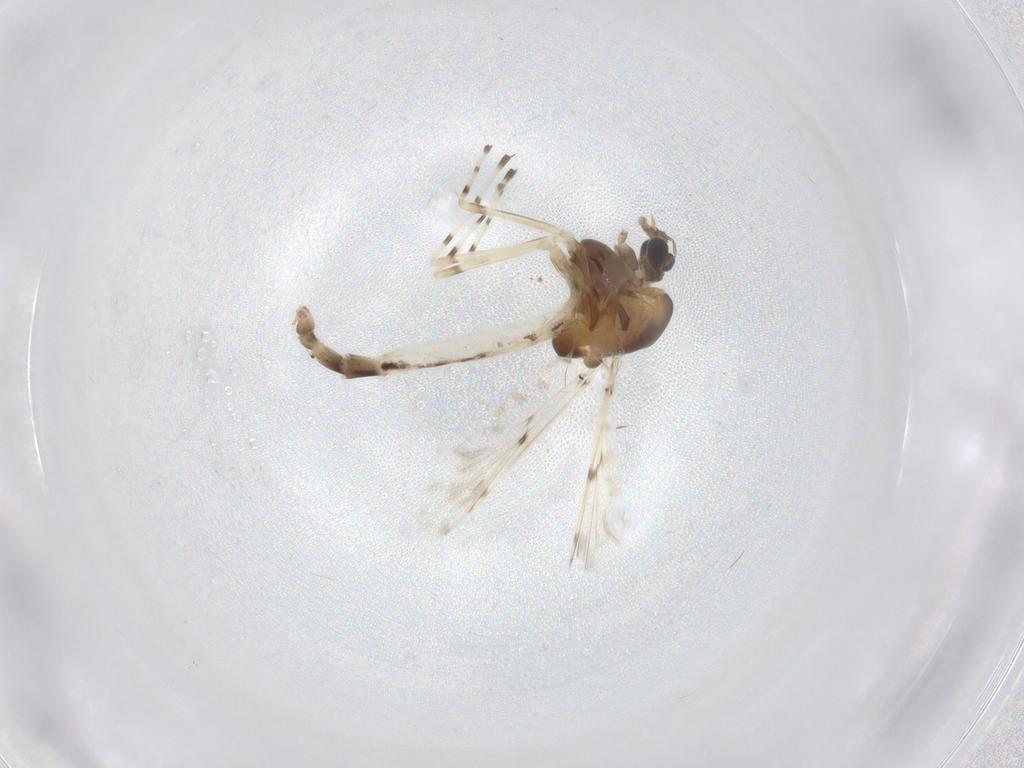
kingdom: Animalia
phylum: Arthropoda
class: Insecta
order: Diptera
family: Chironomidae
